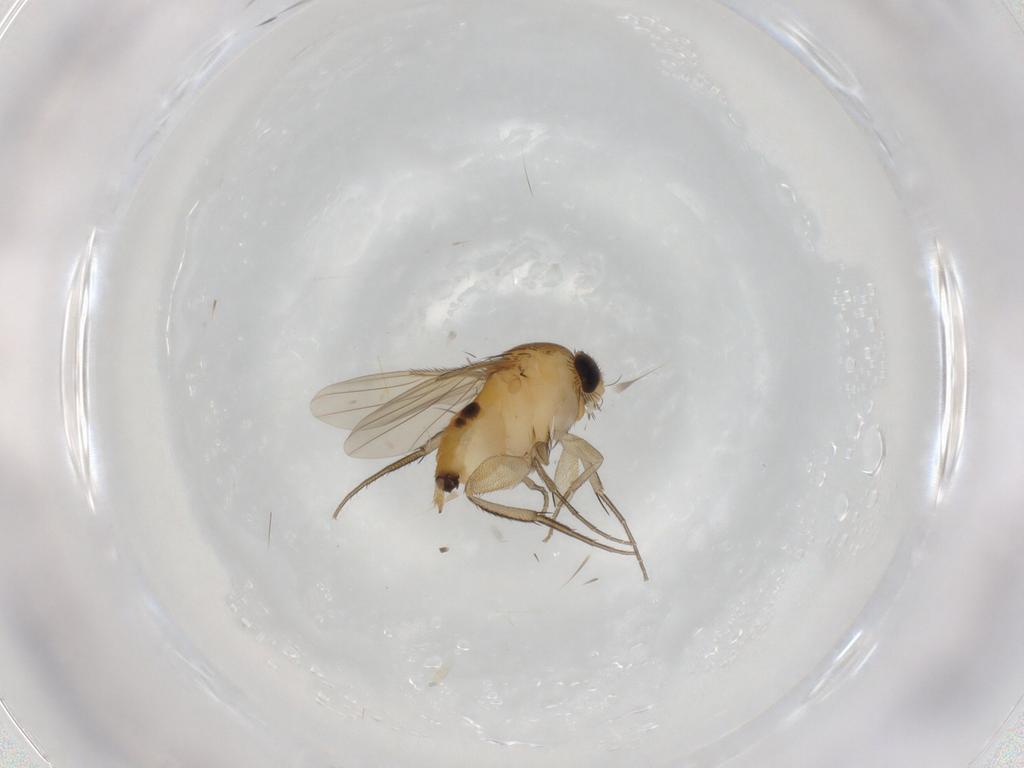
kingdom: Animalia
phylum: Arthropoda
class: Insecta
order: Diptera
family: Phoridae
